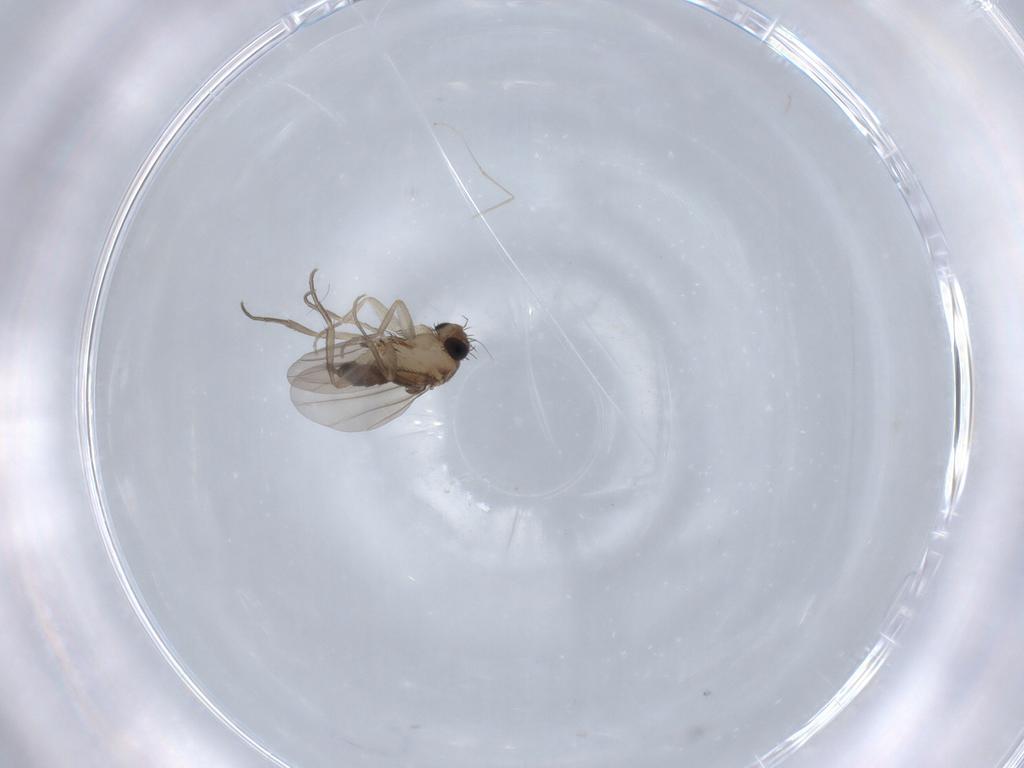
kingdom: Animalia
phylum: Arthropoda
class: Insecta
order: Diptera
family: Phoridae
